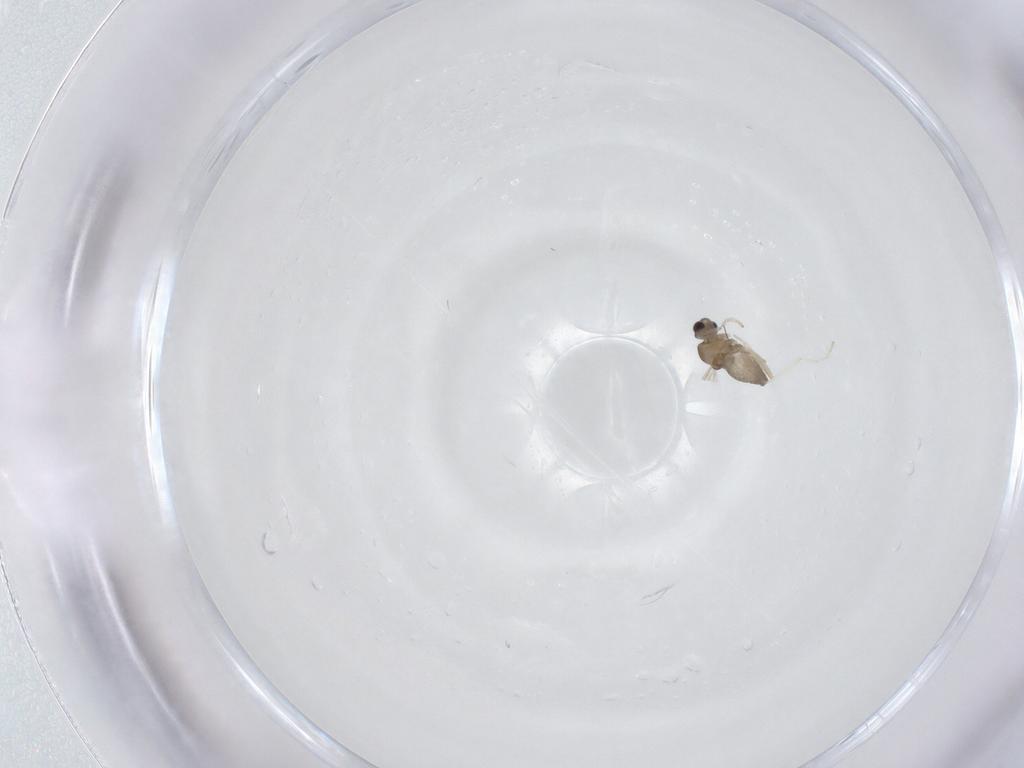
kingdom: Animalia
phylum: Arthropoda
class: Insecta
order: Diptera
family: Cecidomyiidae
